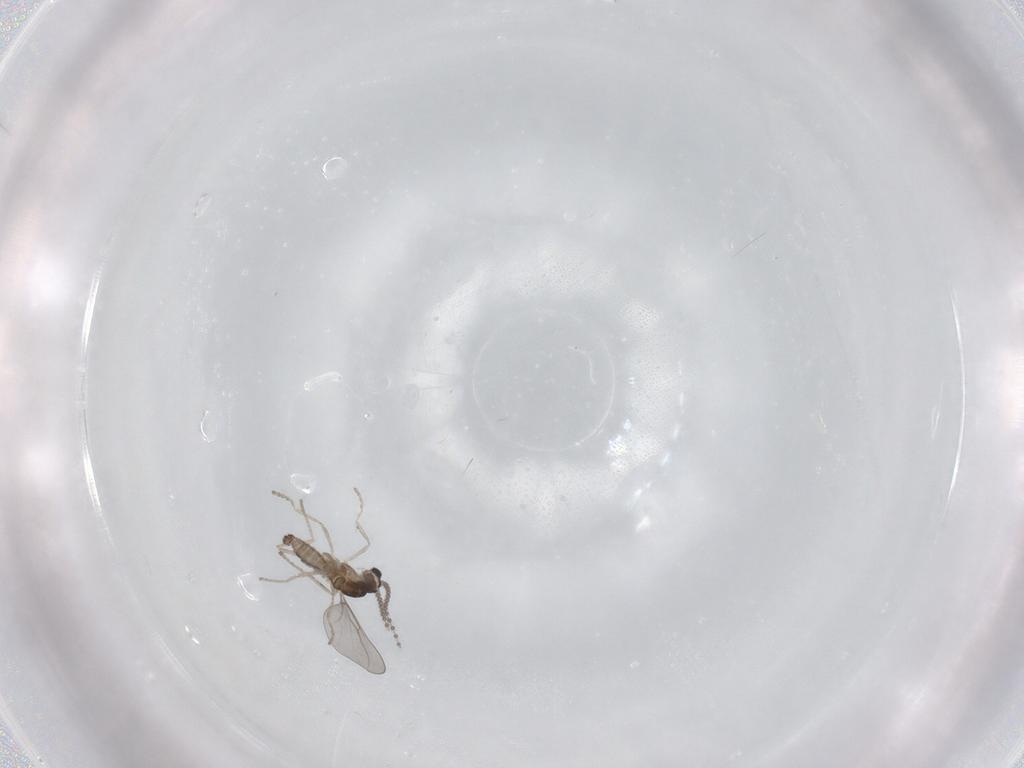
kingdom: Animalia
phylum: Arthropoda
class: Insecta
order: Diptera
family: Cecidomyiidae
